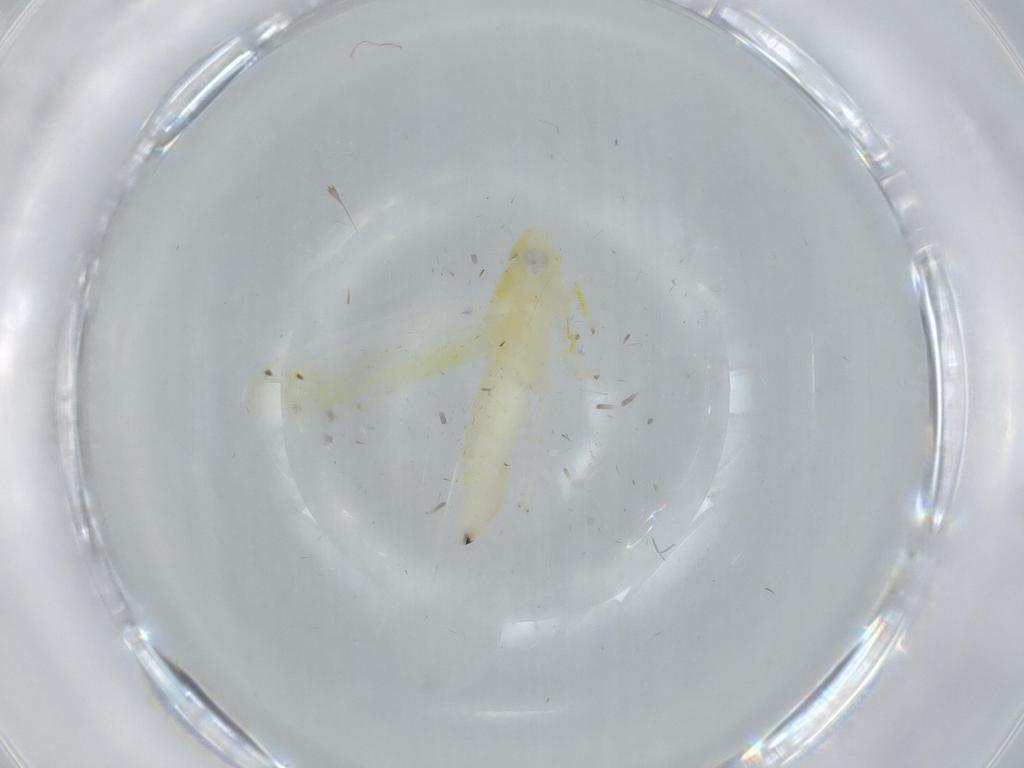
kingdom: Animalia
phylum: Arthropoda
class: Insecta
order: Hemiptera
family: Cicadellidae
